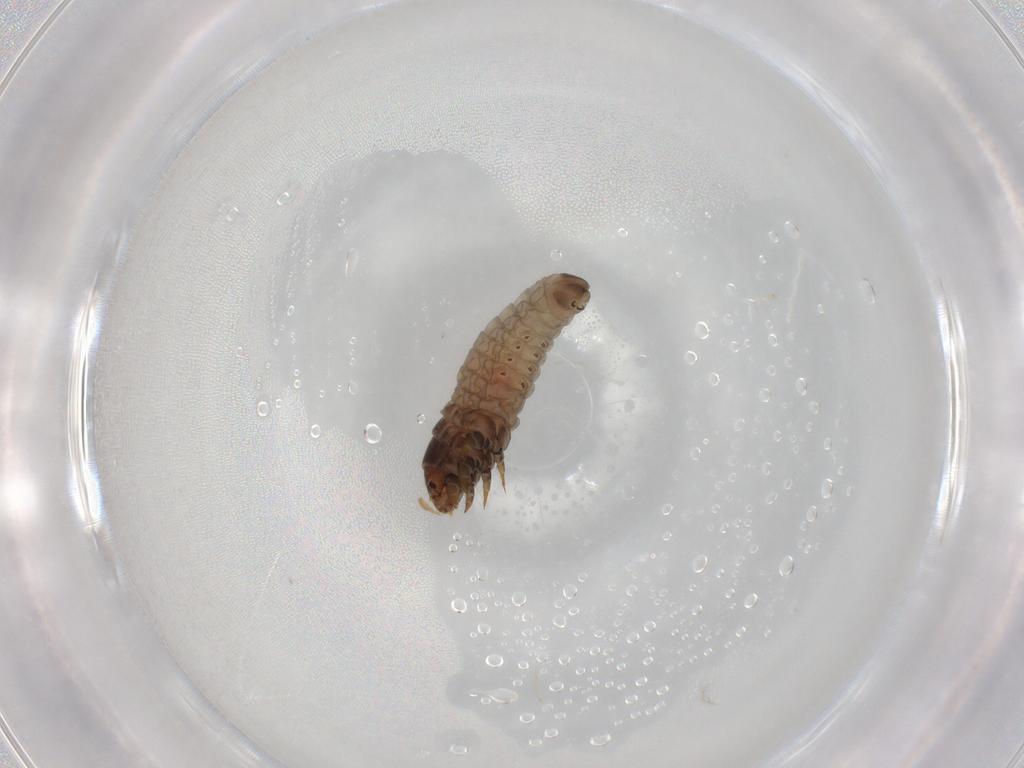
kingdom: Animalia
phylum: Arthropoda
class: Insecta
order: Lepidoptera
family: Psychidae
